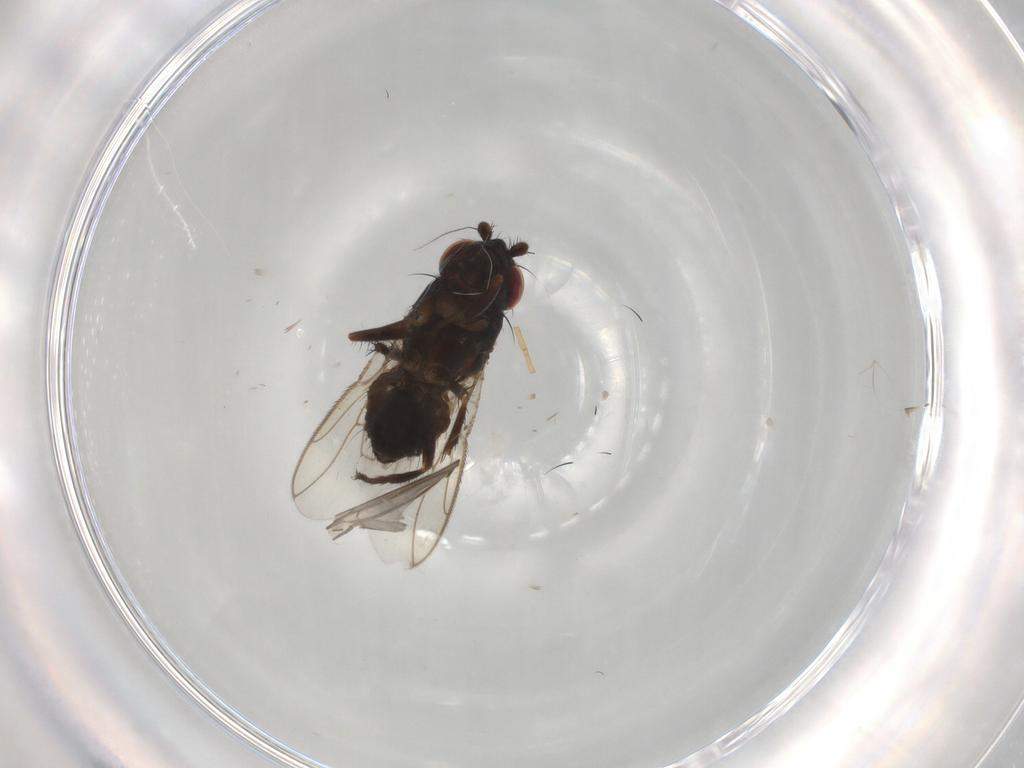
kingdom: Animalia
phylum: Arthropoda
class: Insecta
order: Diptera
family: Sphaeroceridae
